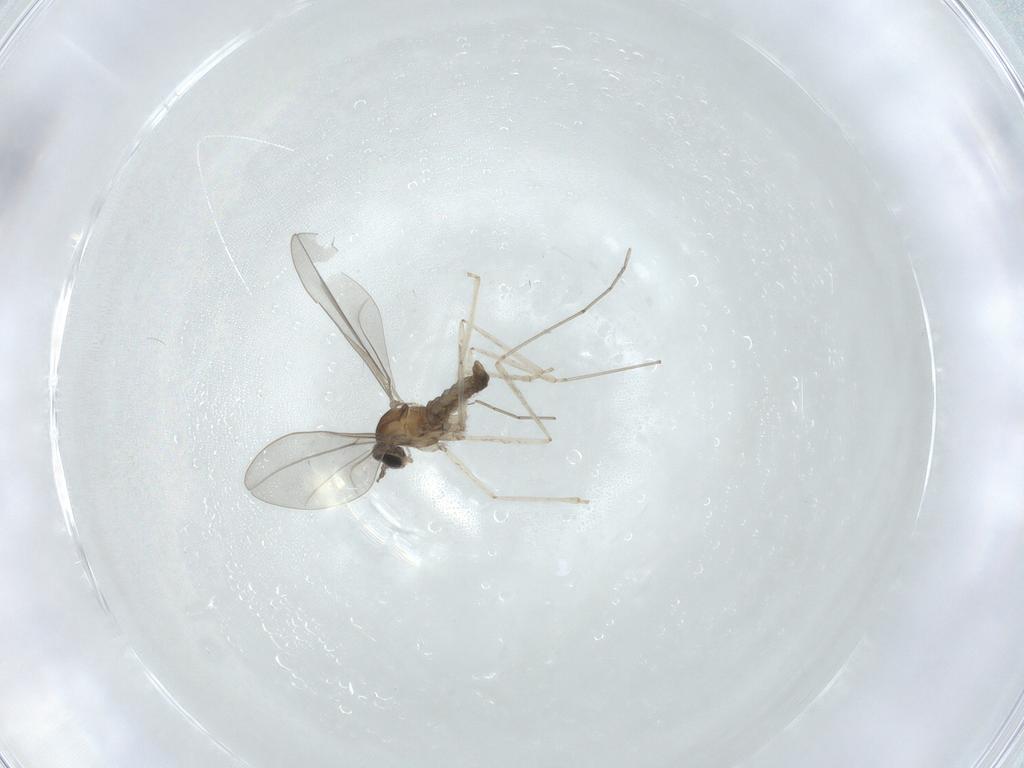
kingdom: Animalia
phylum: Arthropoda
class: Insecta
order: Diptera
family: Cecidomyiidae
